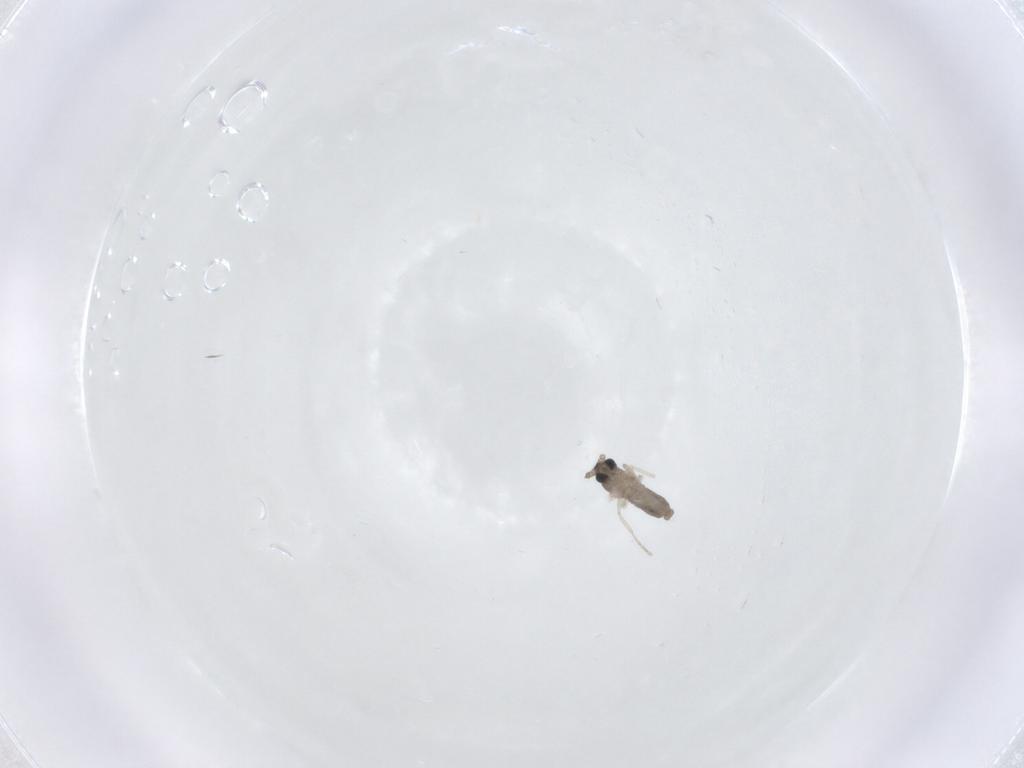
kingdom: Animalia
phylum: Arthropoda
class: Insecta
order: Diptera
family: Cecidomyiidae
